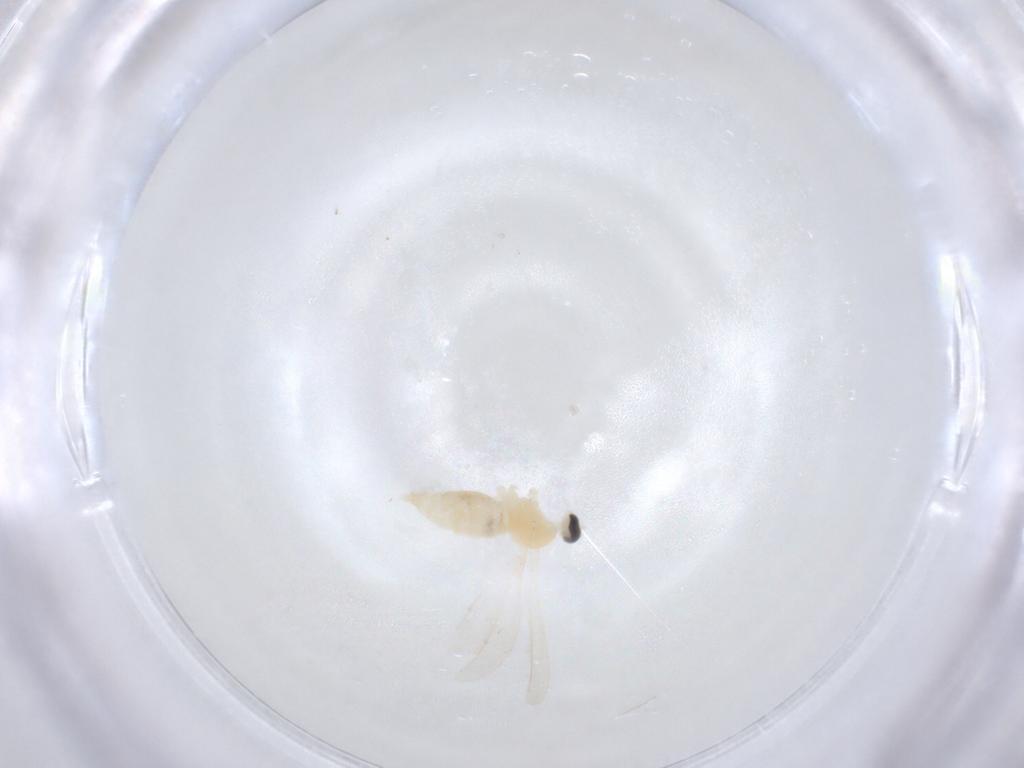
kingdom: Animalia
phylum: Arthropoda
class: Insecta
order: Diptera
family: Cecidomyiidae
